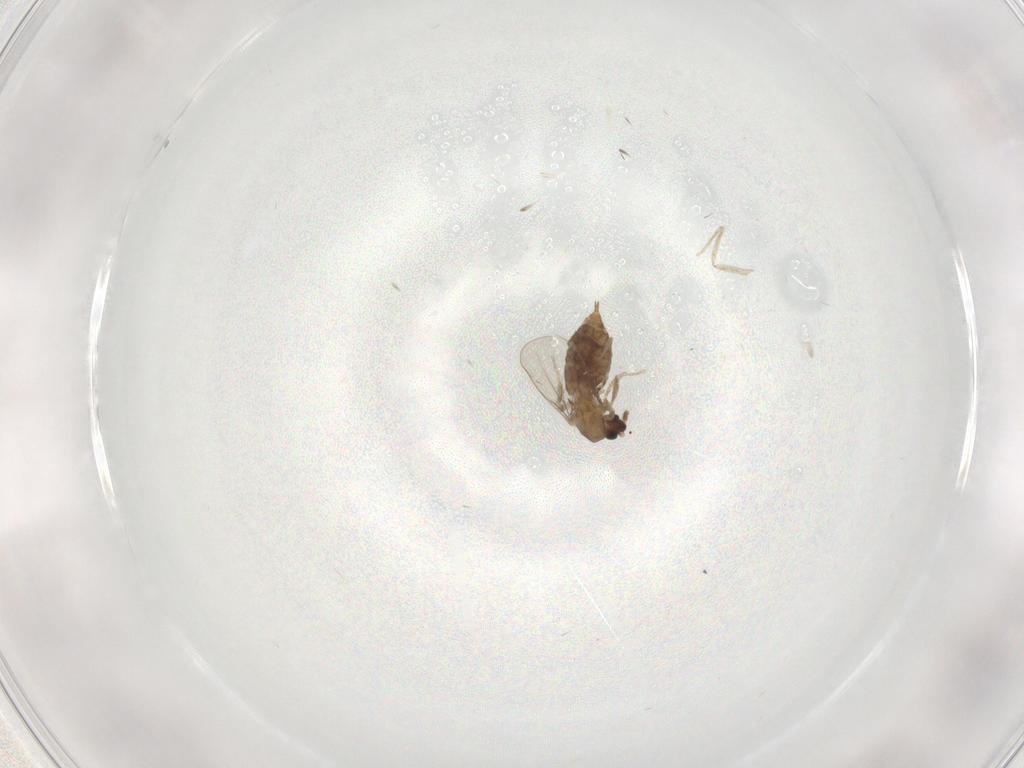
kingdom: Animalia
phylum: Arthropoda
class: Insecta
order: Diptera
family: Cecidomyiidae
